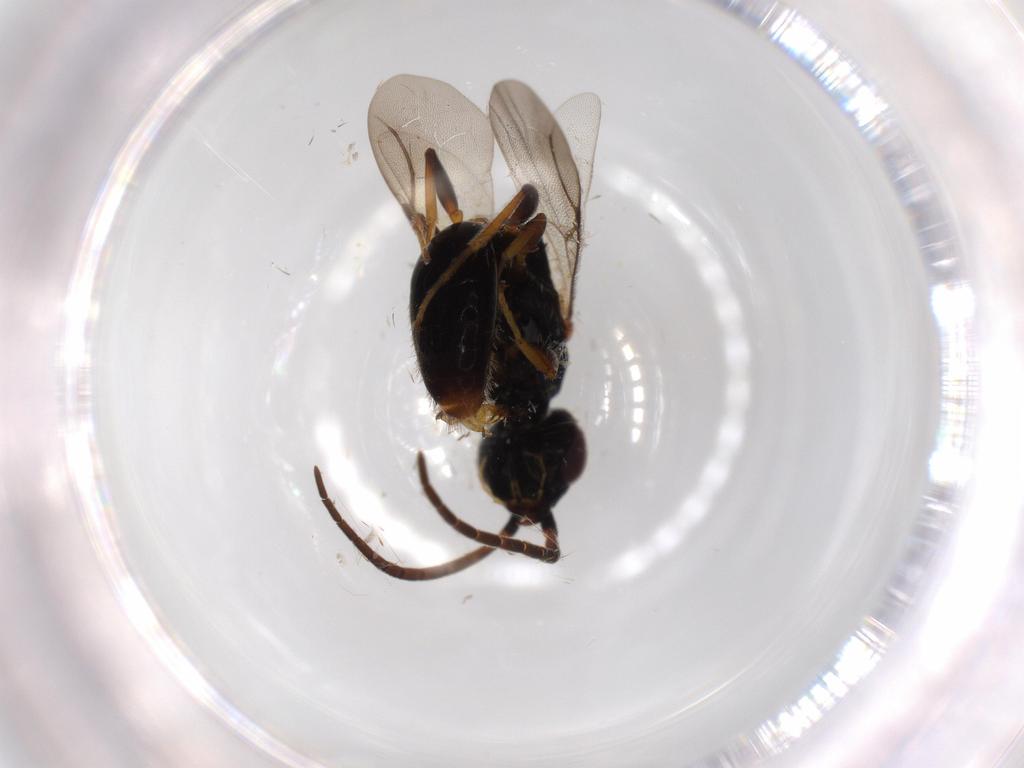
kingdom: Animalia
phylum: Arthropoda
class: Insecta
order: Hymenoptera
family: Bethylidae
